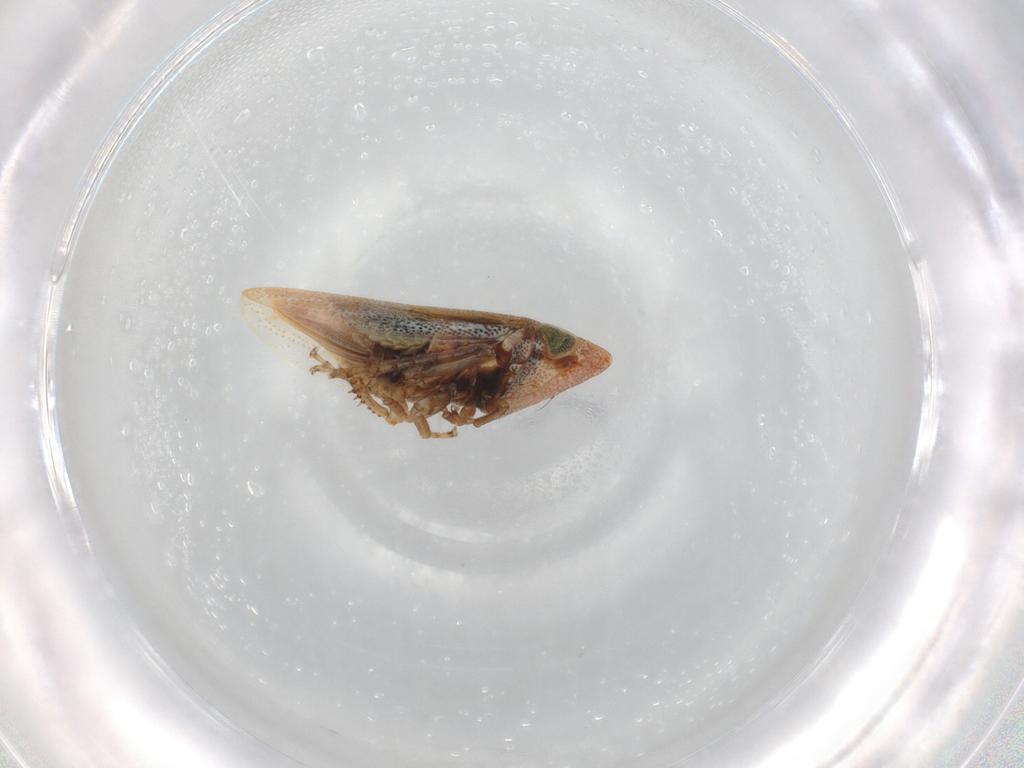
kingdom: Animalia
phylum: Arthropoda
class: Insecta
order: Hemiptera
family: Cicadellidae
